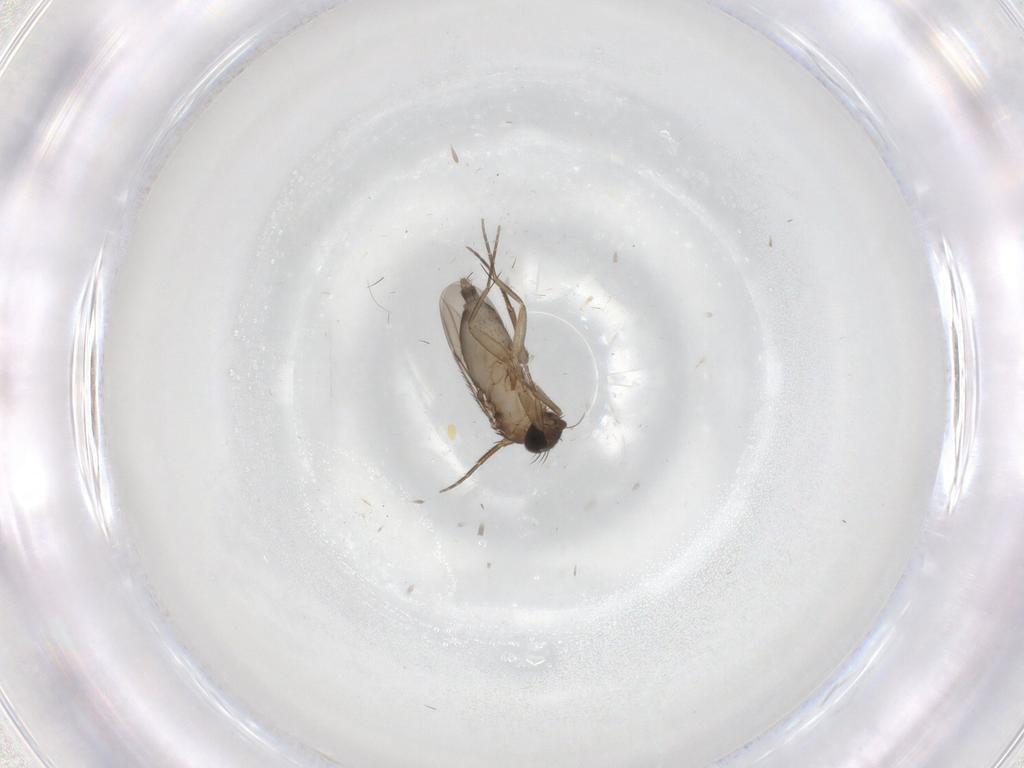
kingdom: Animalia
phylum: Arthropoda
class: Insecta
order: Diptera
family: Phoridae
